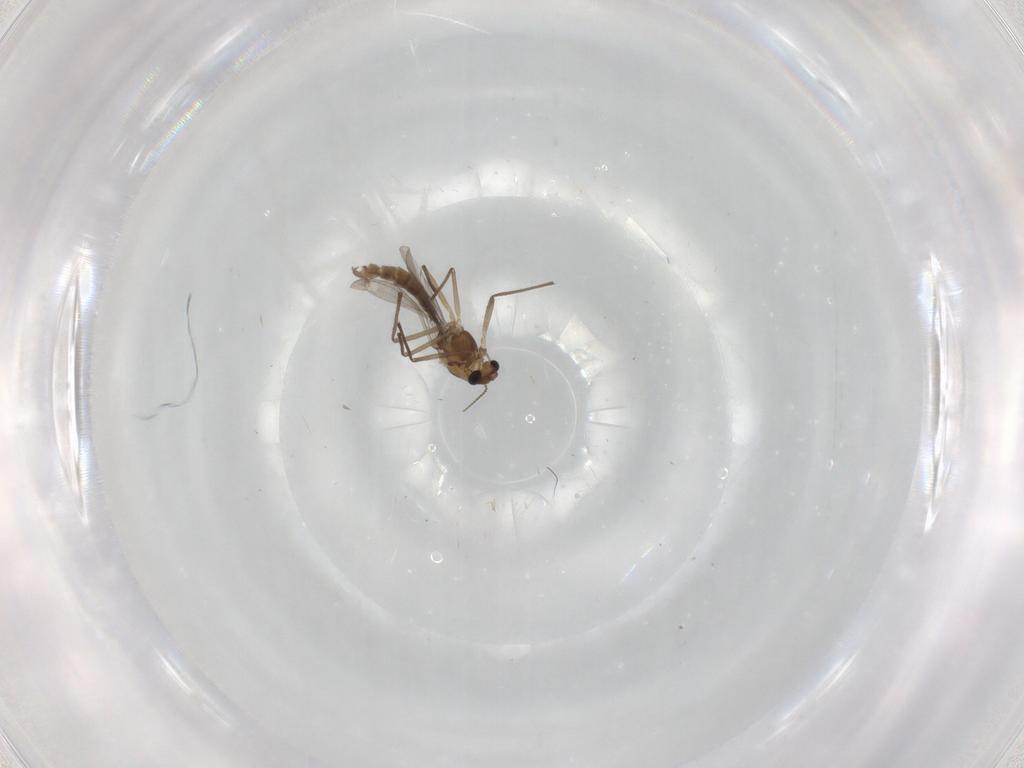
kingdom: Animalia
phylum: Arthropoda
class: Insecta
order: Diptera
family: Chironomidae
